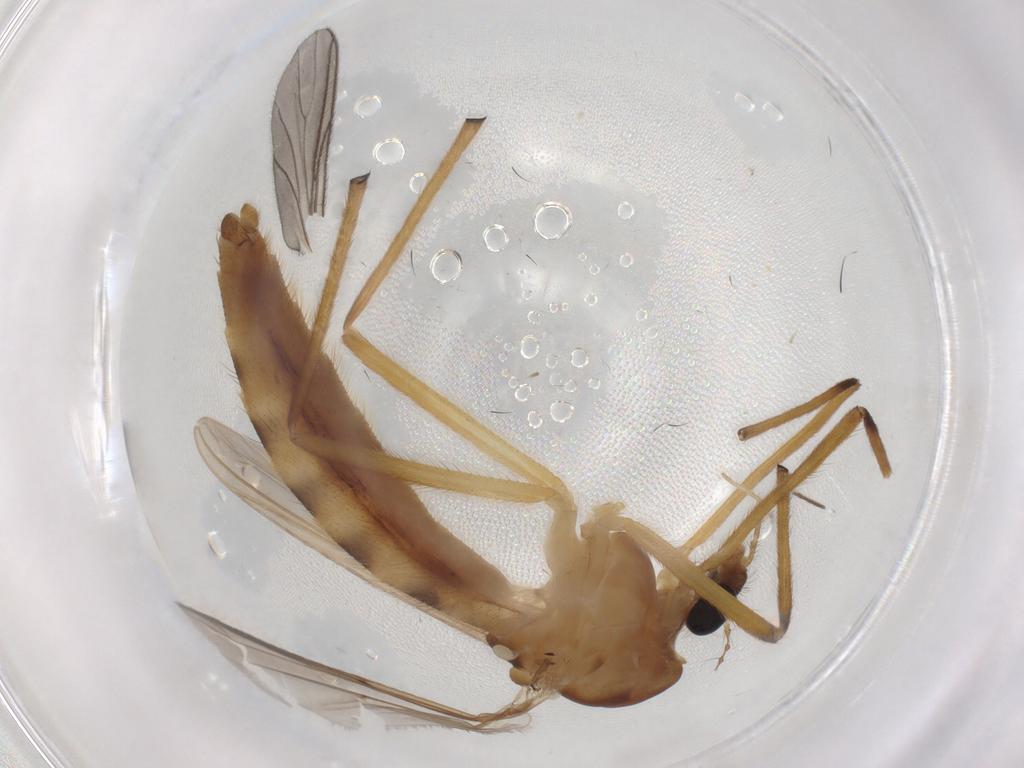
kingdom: Animalia
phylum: Arthropoda
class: Insecta
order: Diptera
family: Limoniidae
